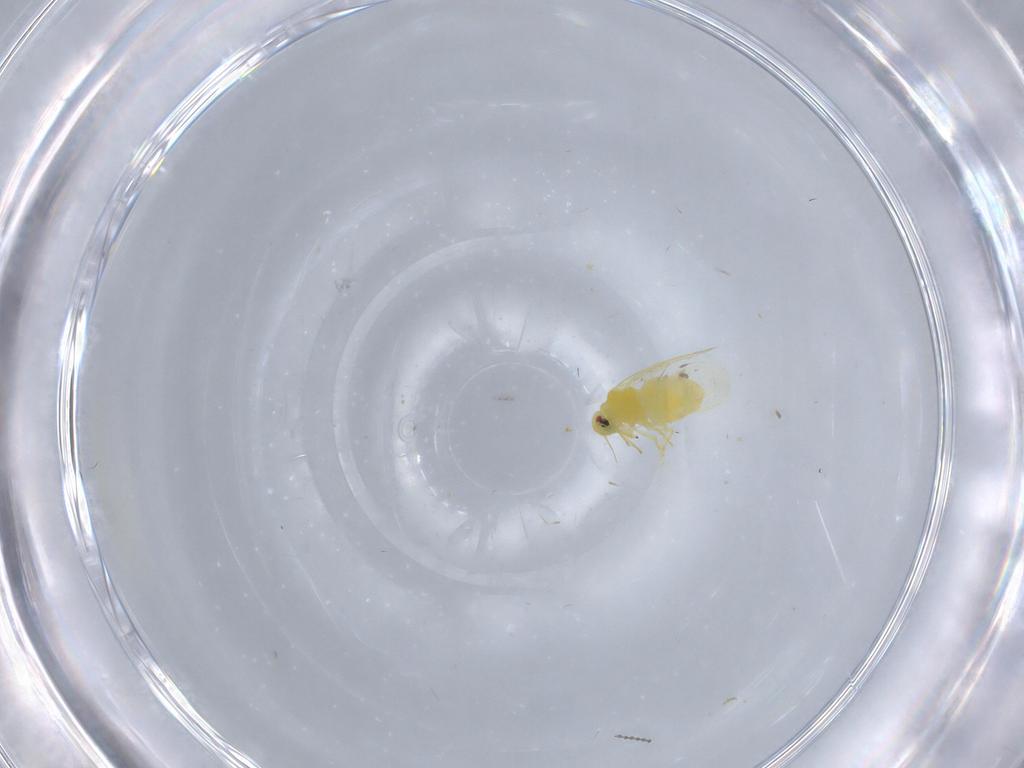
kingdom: Animalia
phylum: Arthropoda
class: Insecta
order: Hemiptera
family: Aleyrodidae
